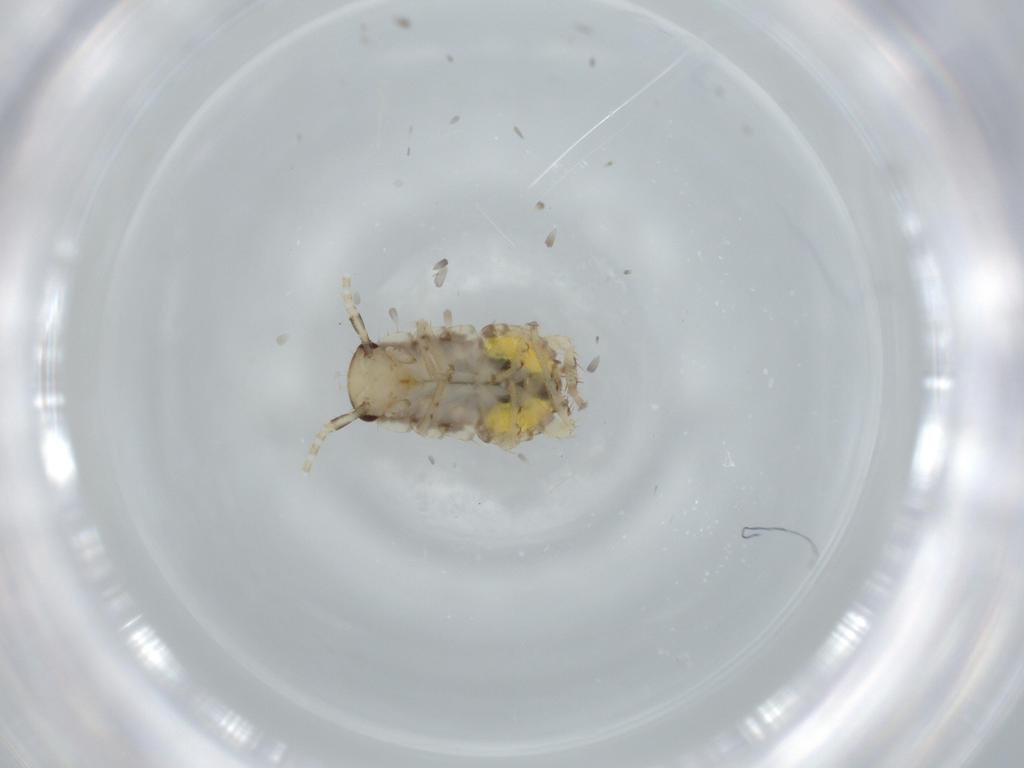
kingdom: Animalia
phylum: Arthropoda
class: Insecta
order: Blattodea
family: Ectobiidae
